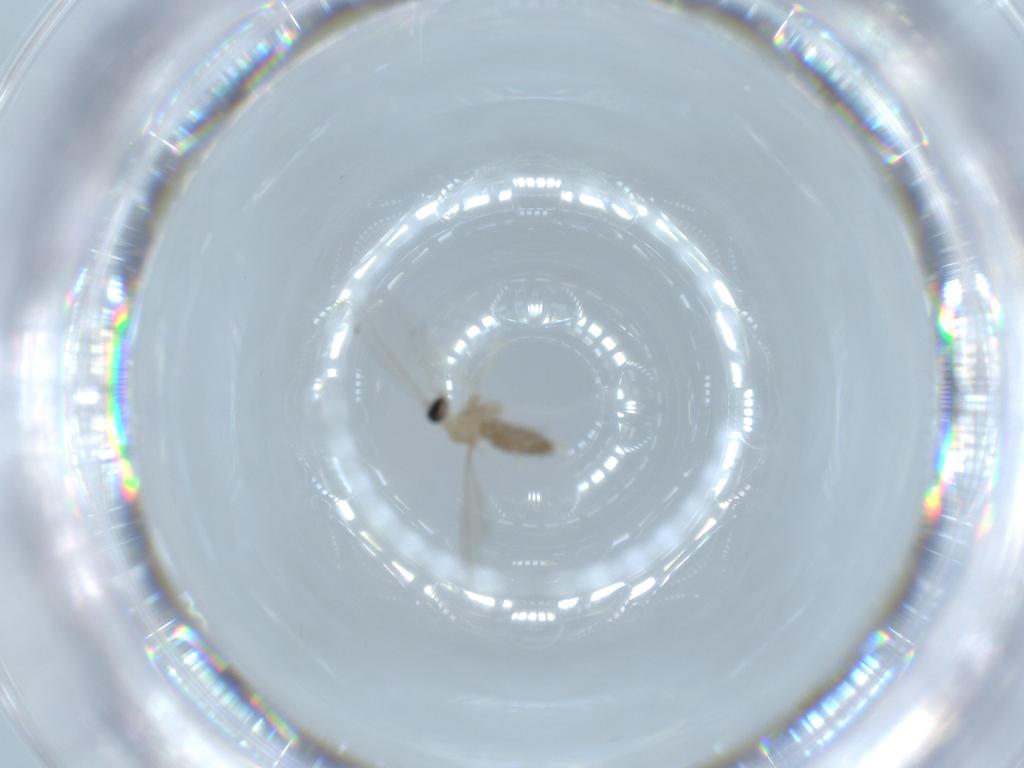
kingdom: Animalia
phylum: Arthropoda
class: Insecta
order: Diptera
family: Cecidomyiidae
